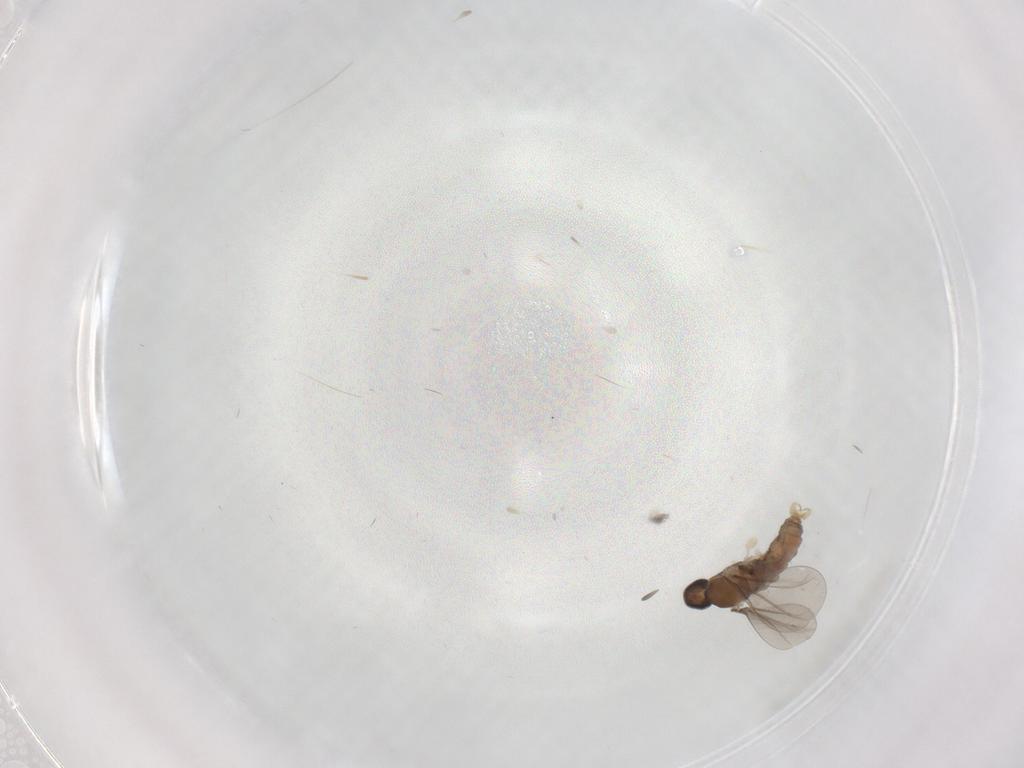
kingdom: Animalia
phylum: Arthropoda
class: Insecta
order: Diptera
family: Cecidomyiidae
